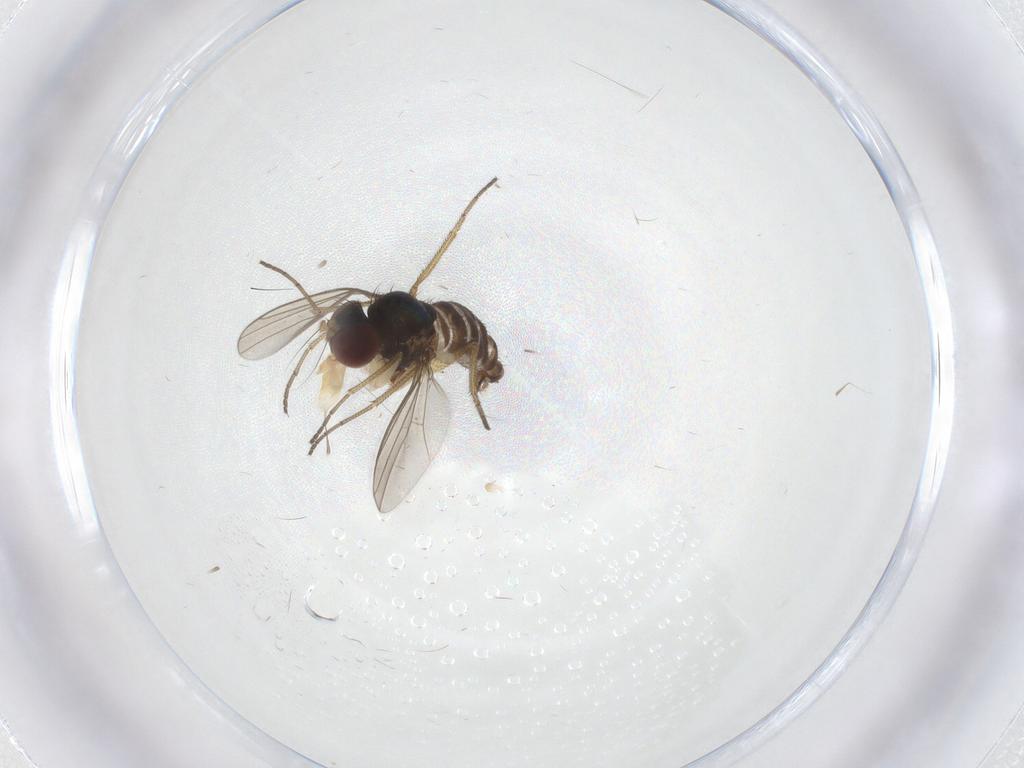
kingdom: Animalia
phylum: Arthropoda
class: Insecta
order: Diptera
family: Dolichopodidae
